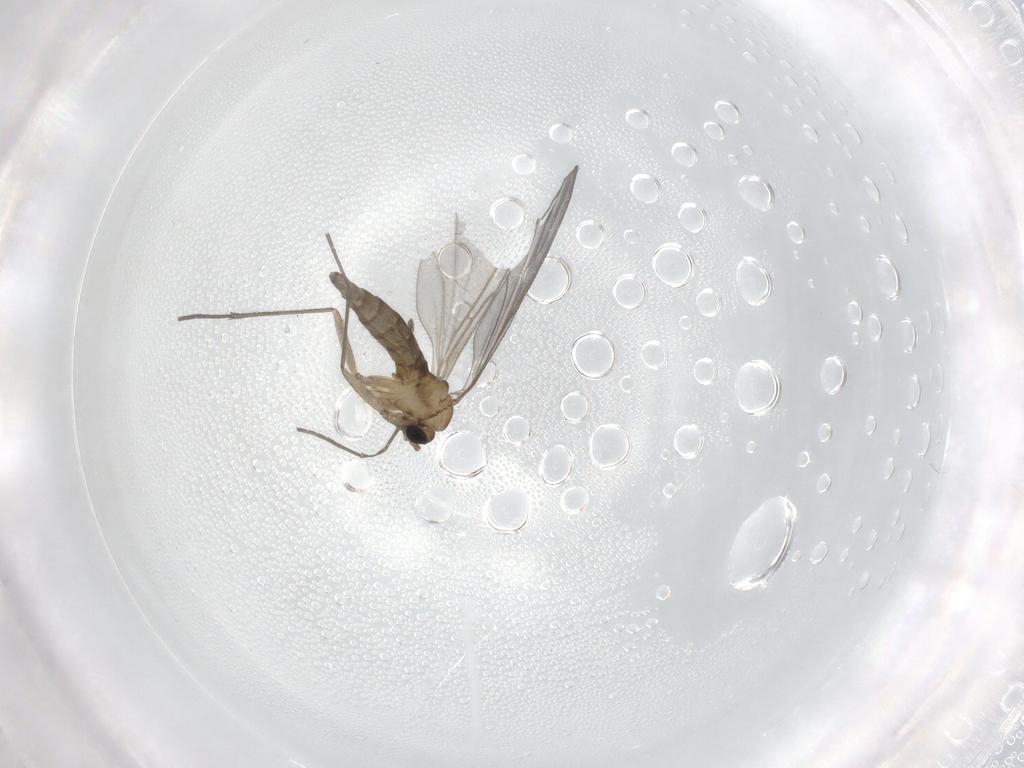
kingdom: Animalia
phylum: Arthropoda
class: Insecta
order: Diptera
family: Sciaridae
